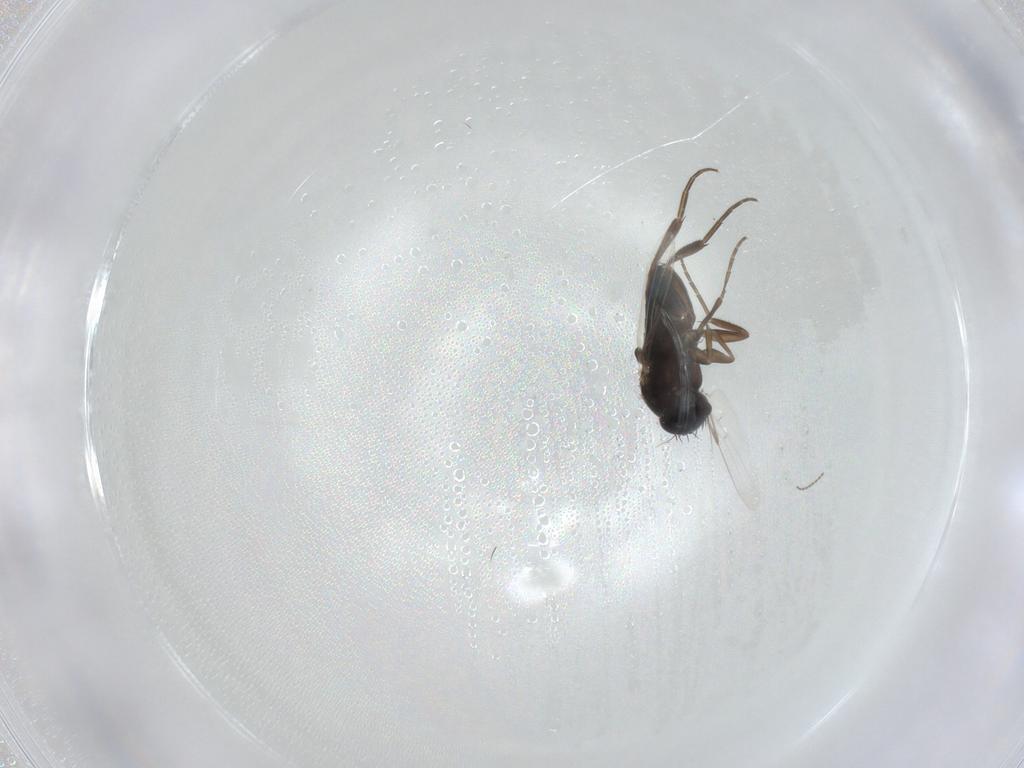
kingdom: Animalia
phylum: Arthropoda
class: Insecta
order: Diptera
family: Phoridae
